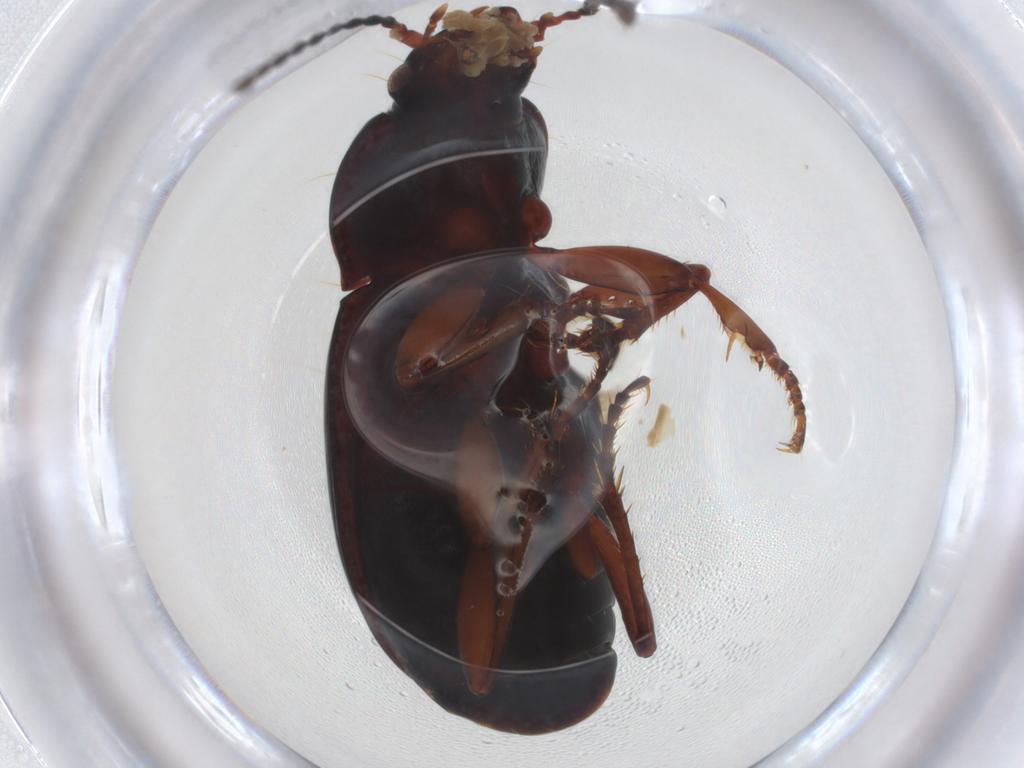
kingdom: Animalia
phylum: Arthropoda
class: Insecta
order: Coleoptera
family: Carabidae
